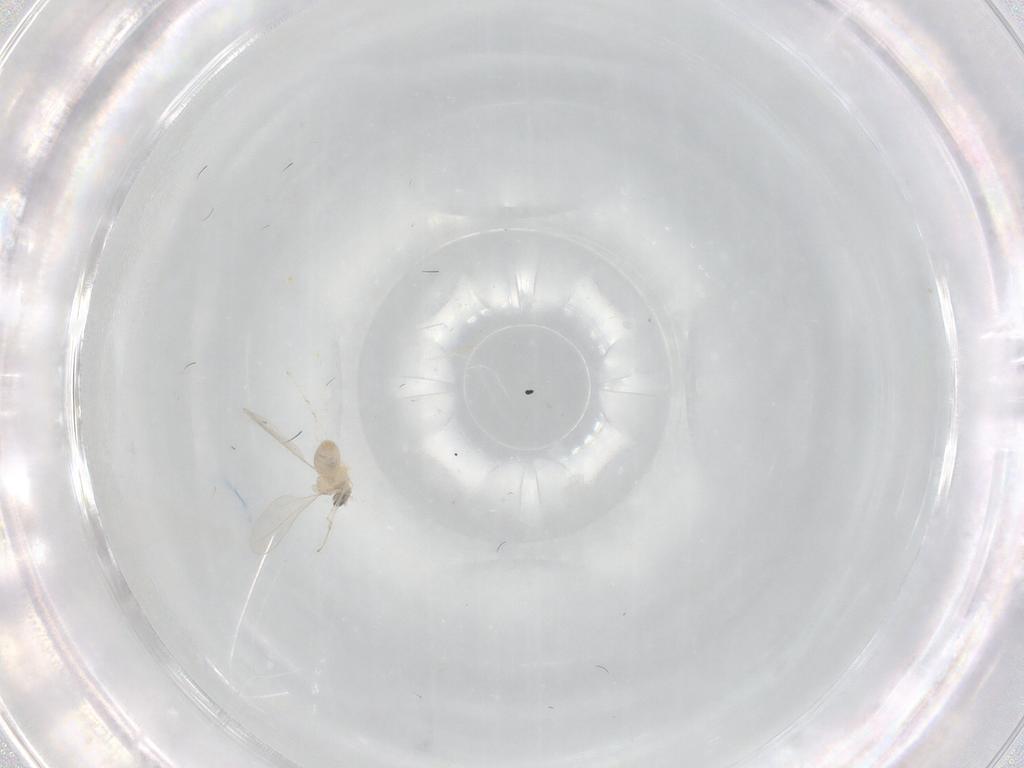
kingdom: Animalia
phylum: Arthropoda
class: Insecta
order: Diptera
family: Cecidomyiidae
